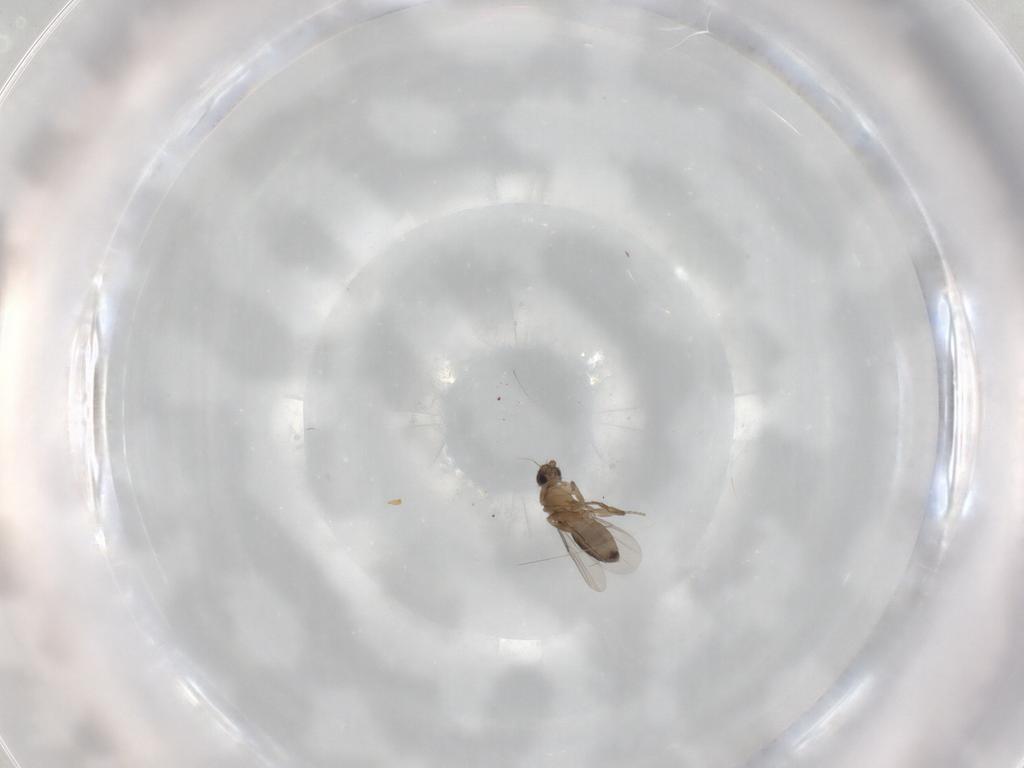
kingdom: Animalia
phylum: Arthropoda
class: Insecta
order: Diptera
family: Phoridae
